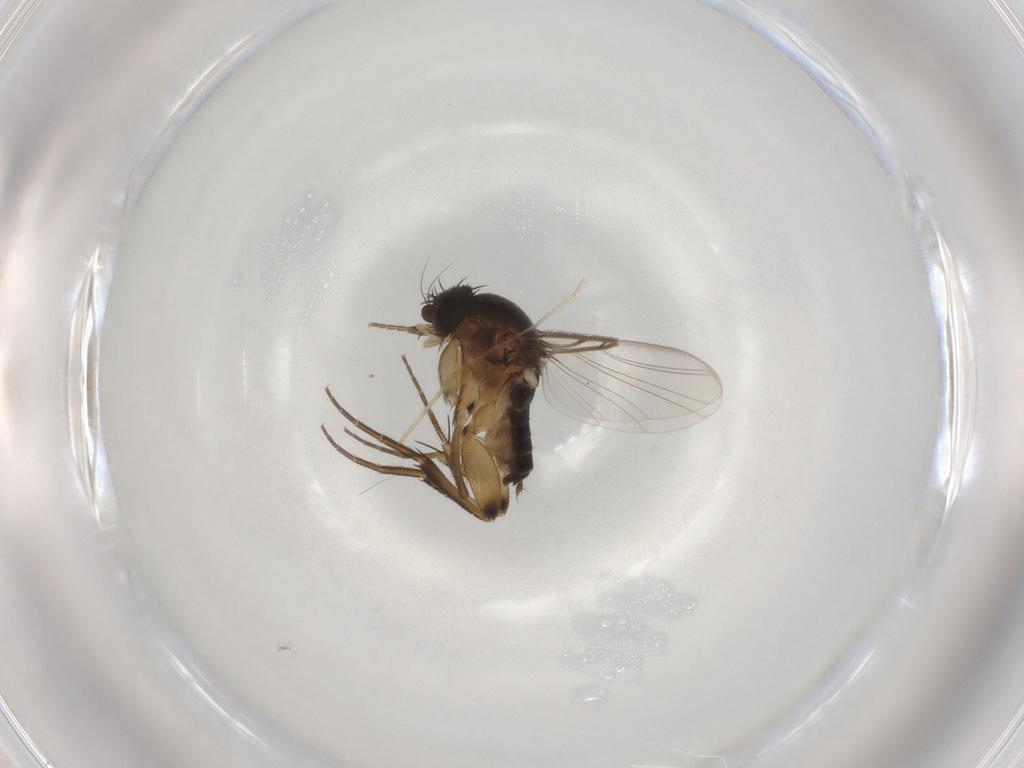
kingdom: Animalia
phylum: Arthropoda
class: Insecta
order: Diptera
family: Phoridae
